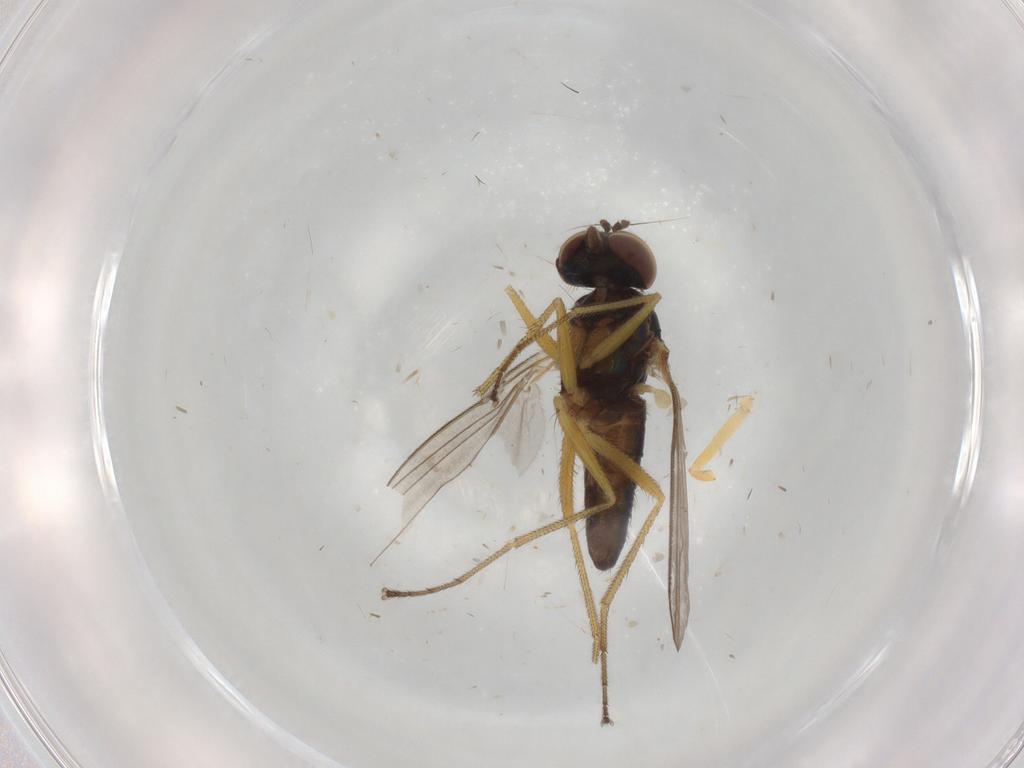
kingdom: Animalia
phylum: Arthropoda
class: Insecta
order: Diptera
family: Dolichopodidae
